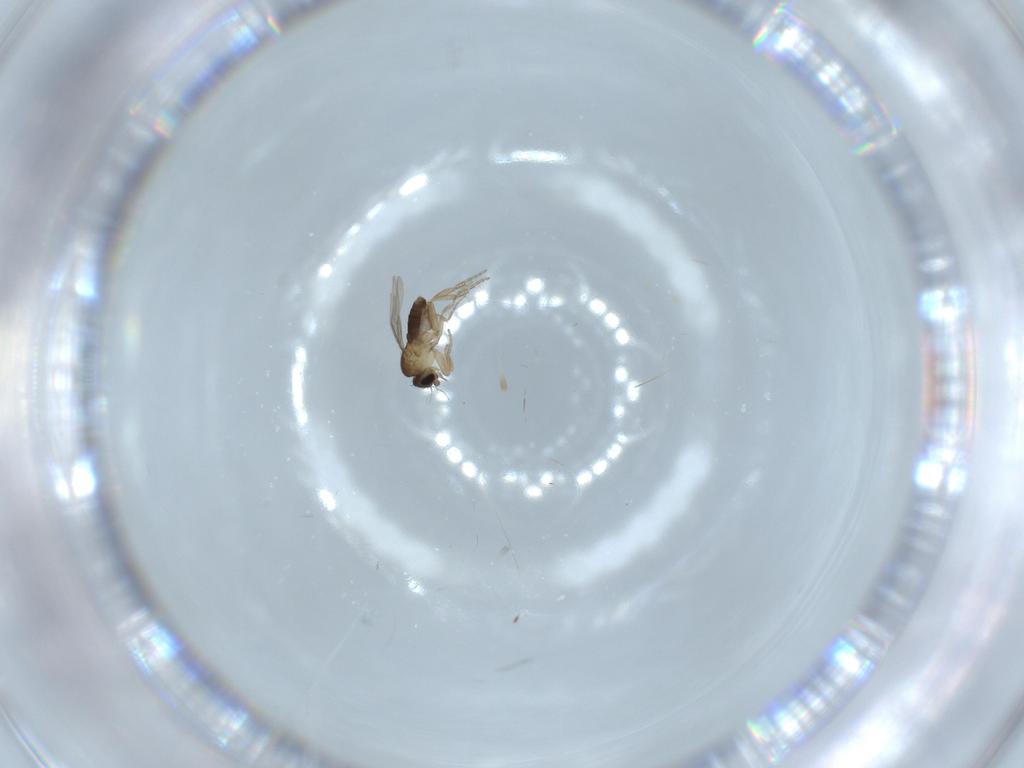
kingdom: Animalia
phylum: Arthropoda
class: Insecta
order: Diptera
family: Phoridae
